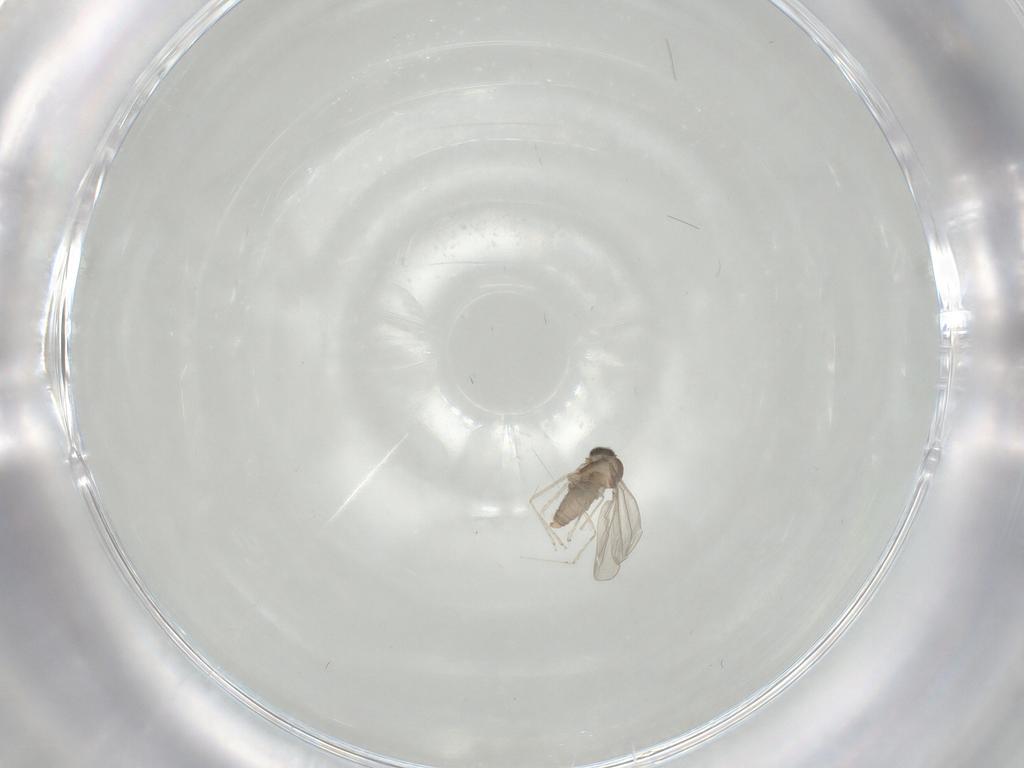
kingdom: Animalia
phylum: Arthropoda
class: Insecta
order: Diptera
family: Cecidomyiidae
